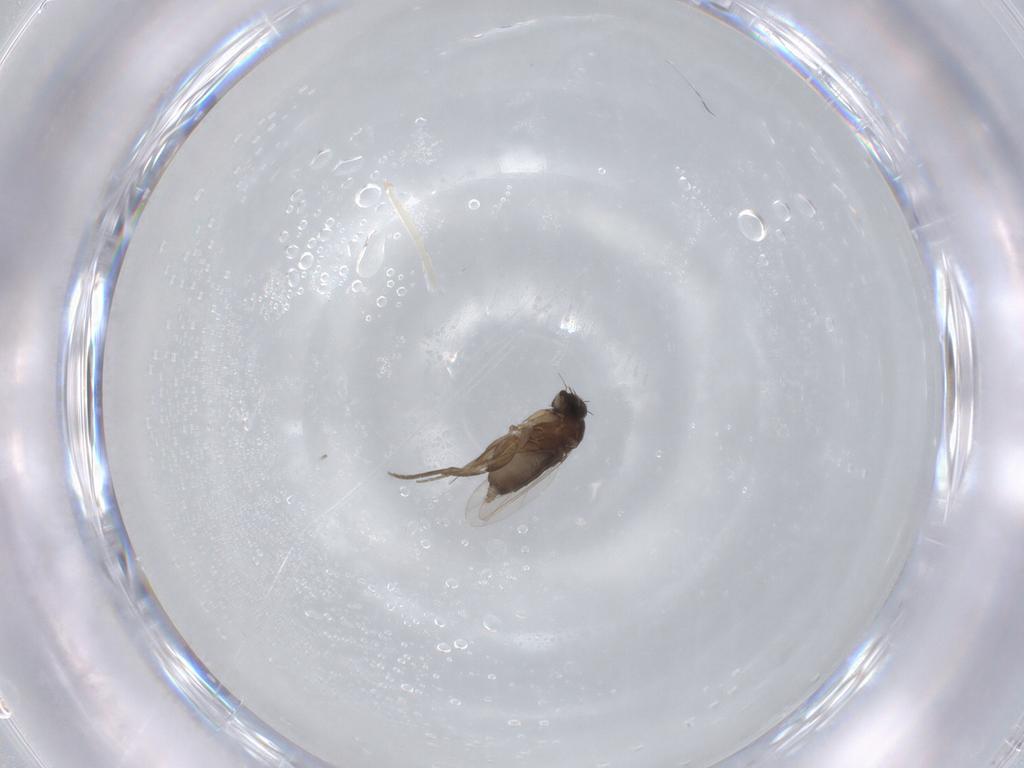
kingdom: Animalia
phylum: Arthropoda
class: Insecta
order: Diptera
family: Phoridae
